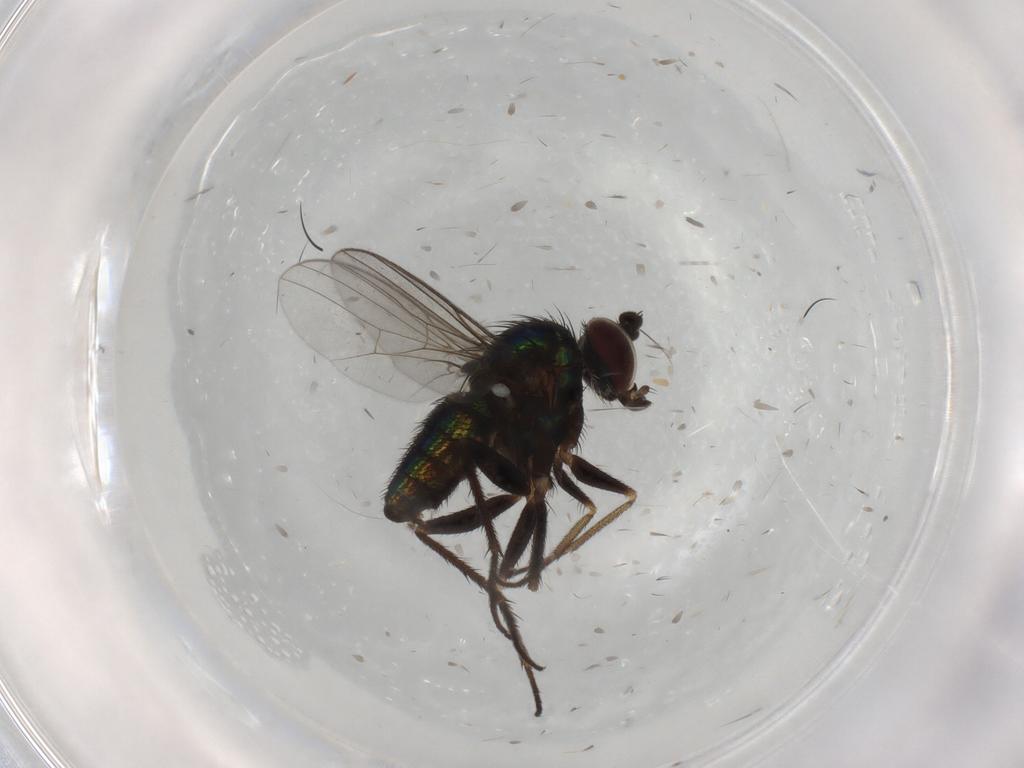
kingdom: Animalia
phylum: Arthropoda
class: Insecta
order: Diptera
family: Dolichopodidae
